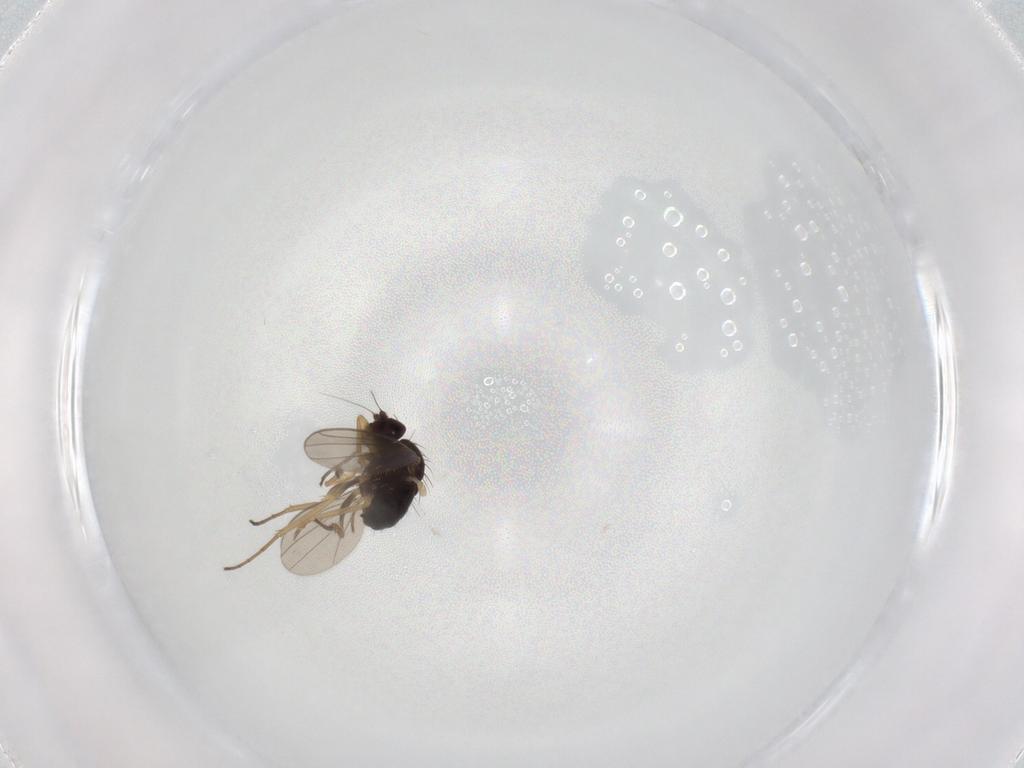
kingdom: Animalia
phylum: Arthropoda
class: Insecta
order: Diptera
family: Dolichopodidae
